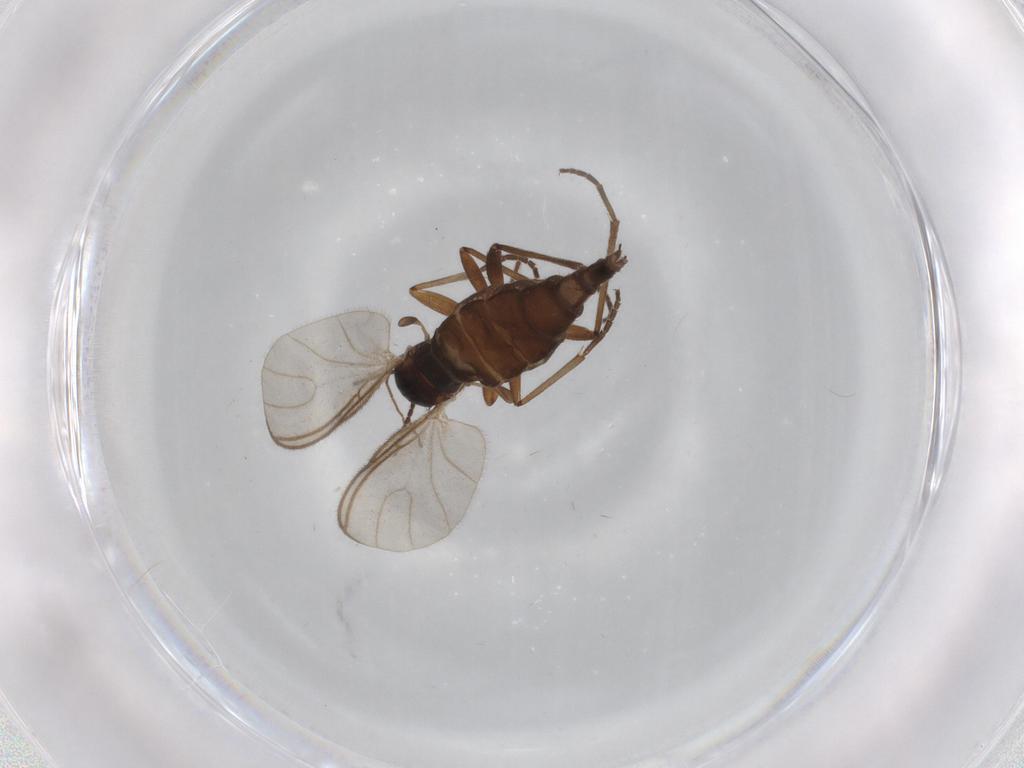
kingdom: Animalia
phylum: Arthropoda
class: Insecta
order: Diptera
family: Sciaridae
